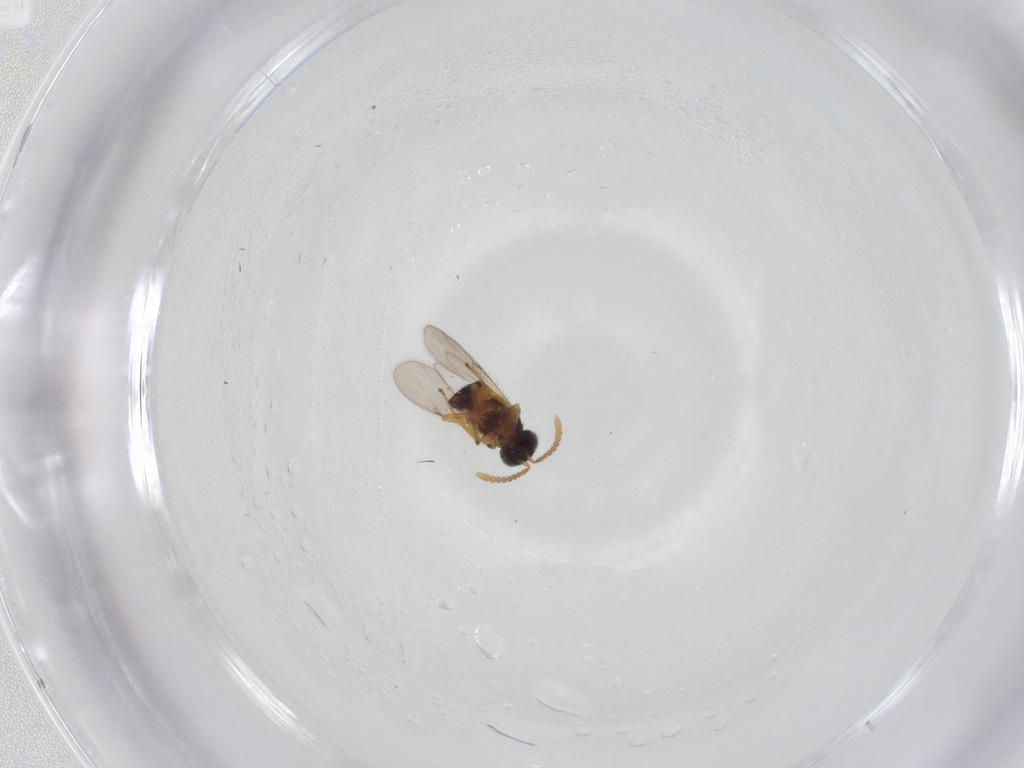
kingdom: Animalia
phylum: Arthropoda
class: Insecta
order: Hymenoptera
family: Encyrtidae
